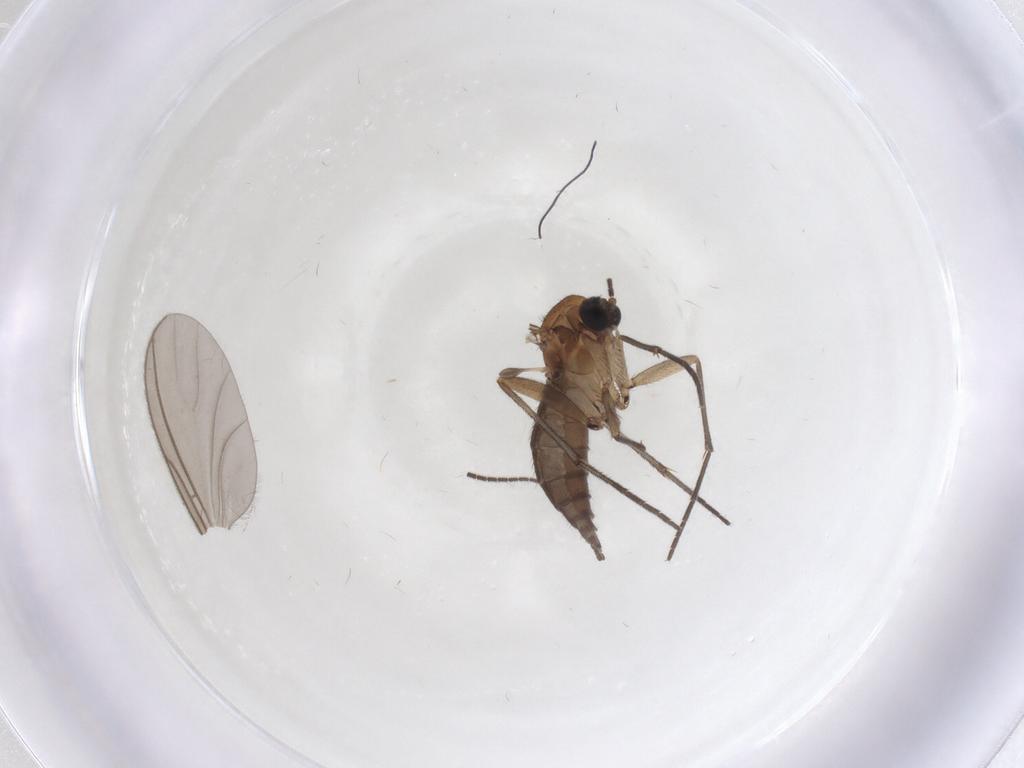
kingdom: Animalia
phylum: Arthropoda
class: Insecta
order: Diptera
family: Sciaridae
